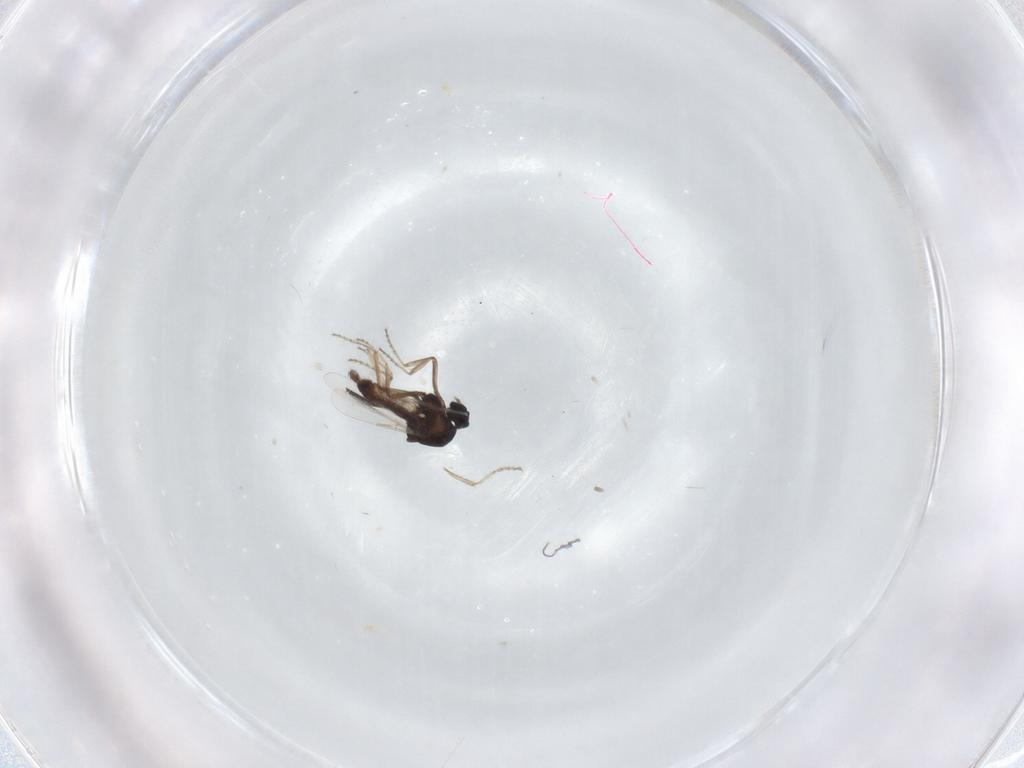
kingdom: Animalia
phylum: Arthropoda
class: Insecta
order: Diptera
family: Ceratopogonidae
